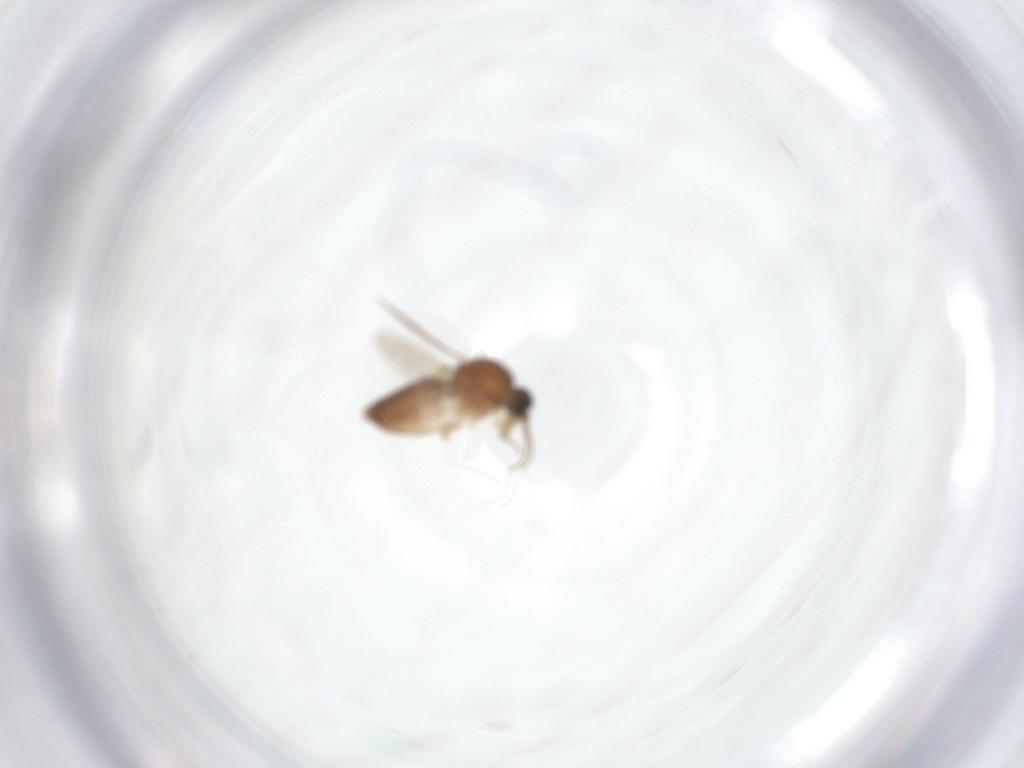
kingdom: Animalia
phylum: Arthropoda
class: Insecta
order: Diptera
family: Ceratopogonidae
